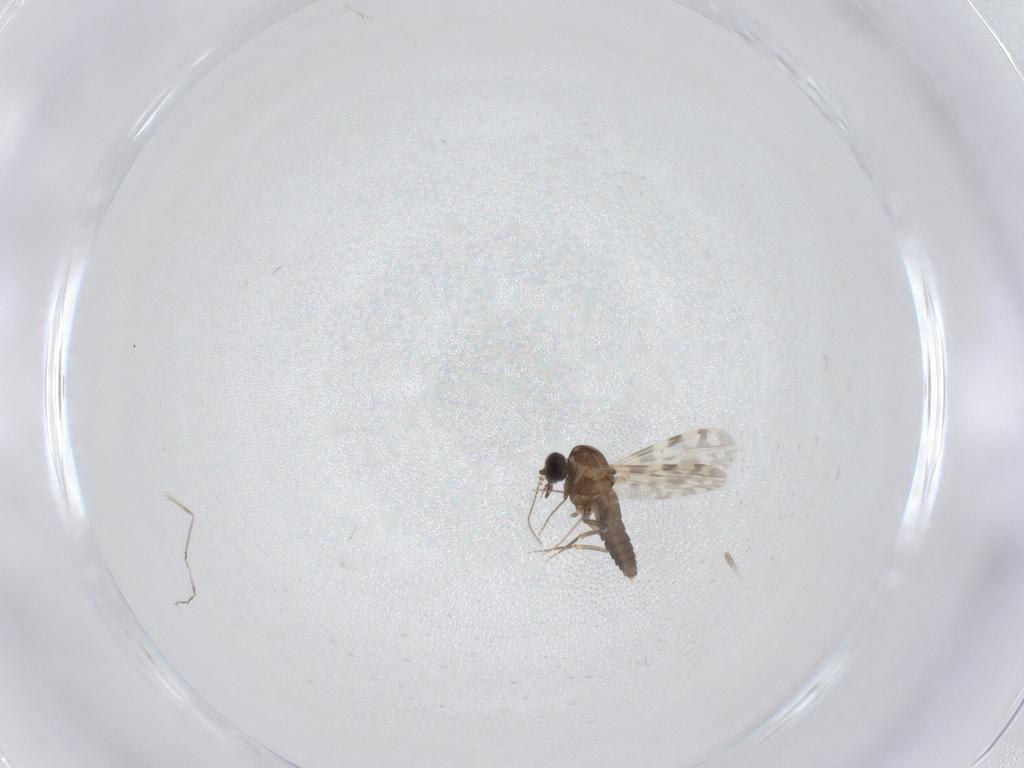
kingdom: Animalia
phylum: Arthropoda
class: Insecta
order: Diptera
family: Ceratopogonidae
